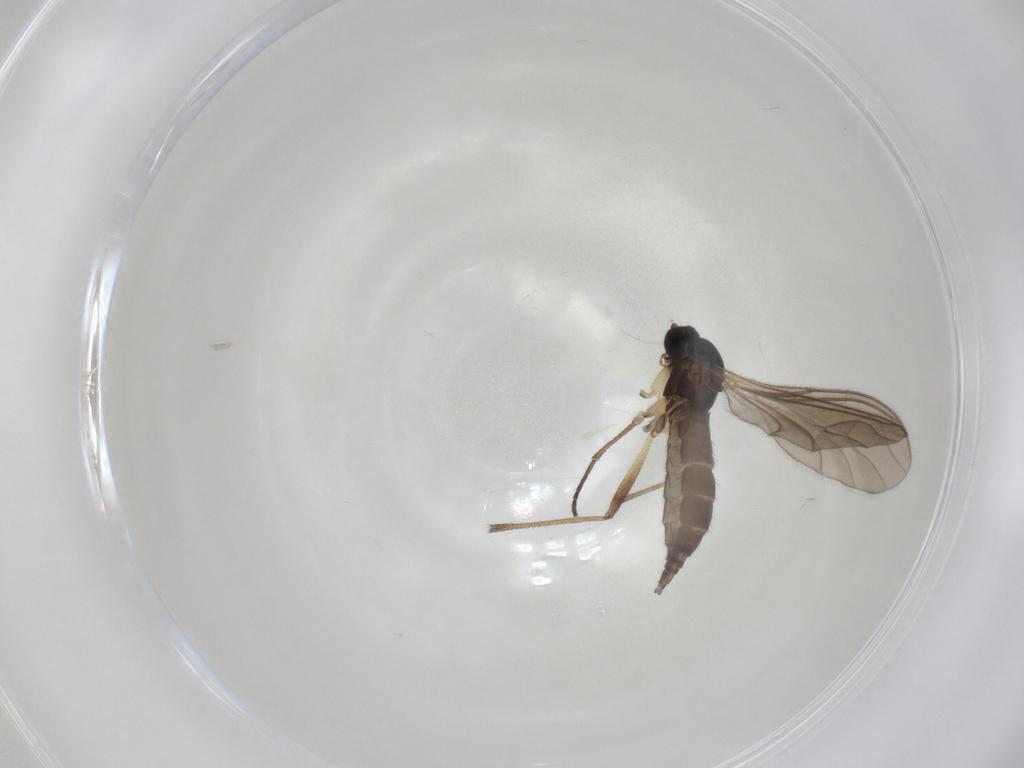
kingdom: Animalia
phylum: Arthropoda
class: Insecta
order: Diptera
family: Sciaridae
